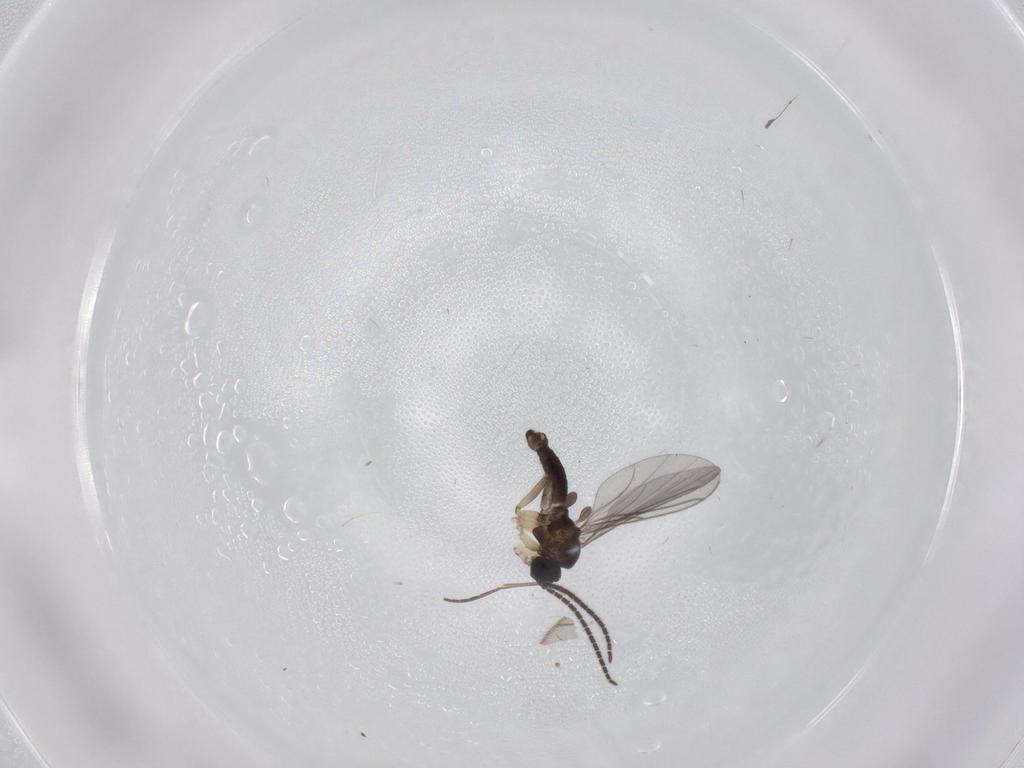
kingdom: Animalia
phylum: Arthropoda
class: Insecta
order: Diptera
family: Sciaridae
